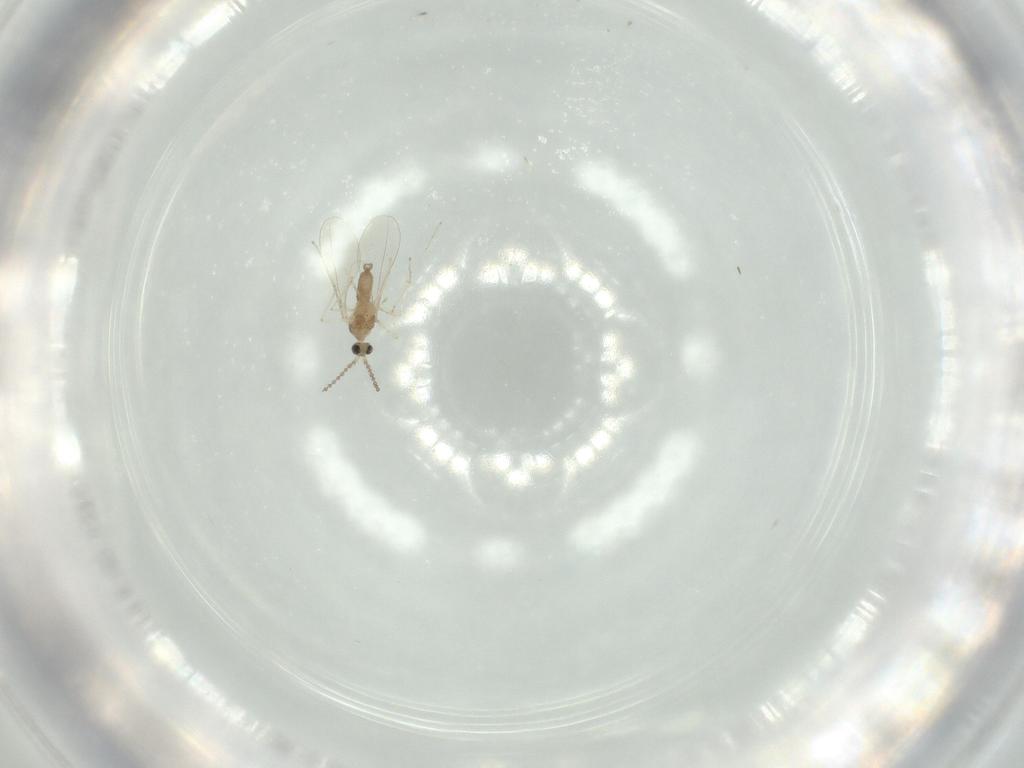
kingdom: Animalia
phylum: Arthropoda
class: Insecta
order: Diptera
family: Cecidomyiidae
